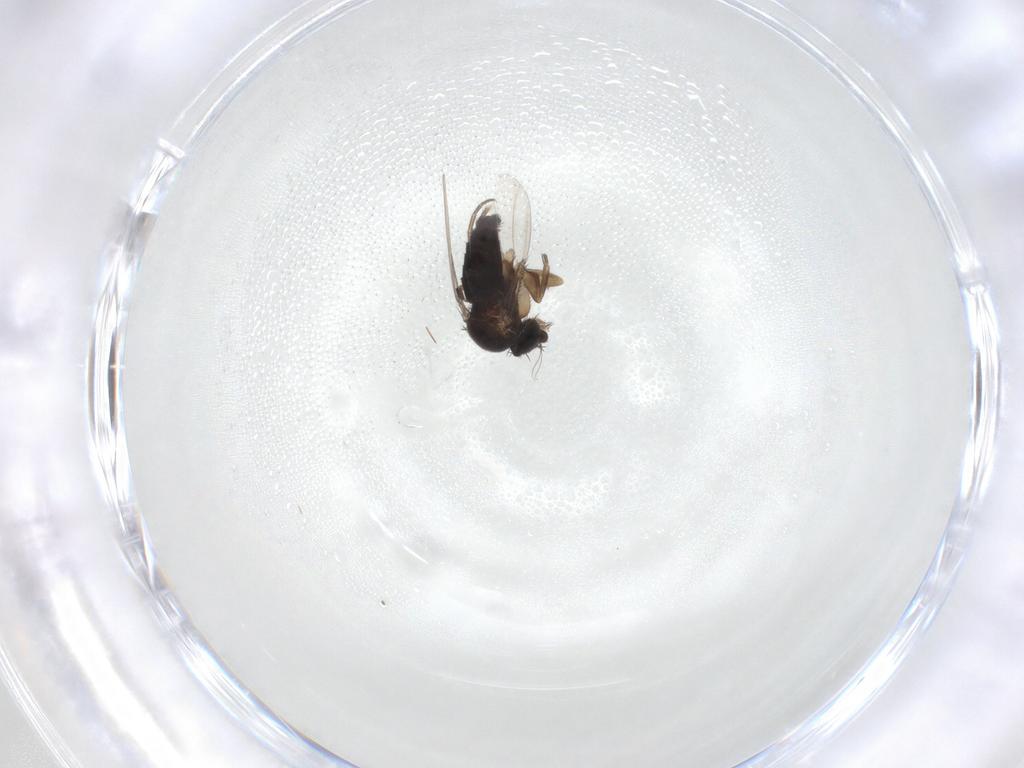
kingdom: Animalia
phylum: Arthropoda
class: Insecta
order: Diptera
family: Phoridae
